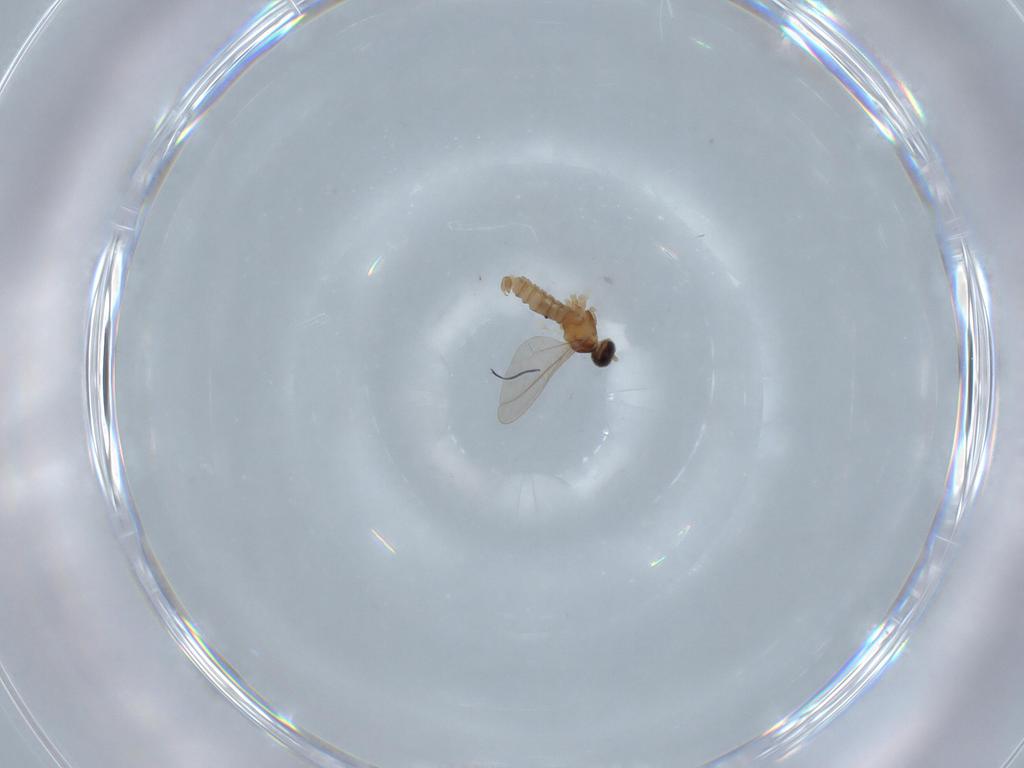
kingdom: Animalia
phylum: Arthropoda
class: Insecta
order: Diptera
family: Cecidomyiidae
